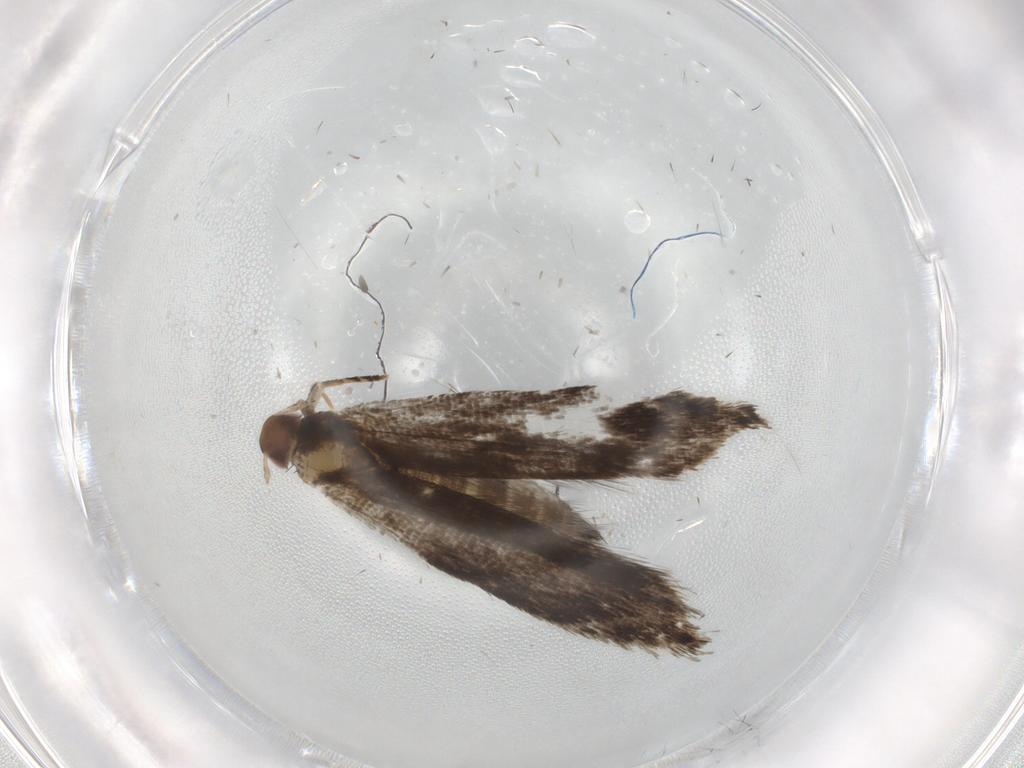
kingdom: Animalia
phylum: Arthropoda
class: Insecta
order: Lepidoptera
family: Gelechiidae
